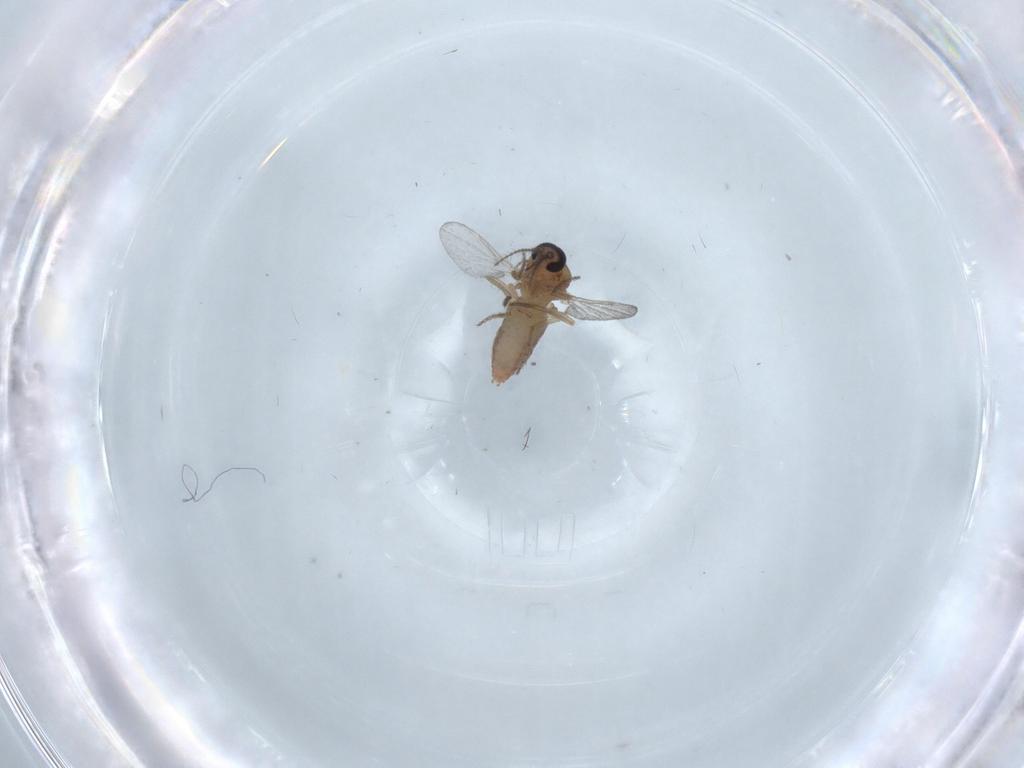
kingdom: Animalia
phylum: Arthropoda
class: Insecta
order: Diptera
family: Ceratopogonidae
